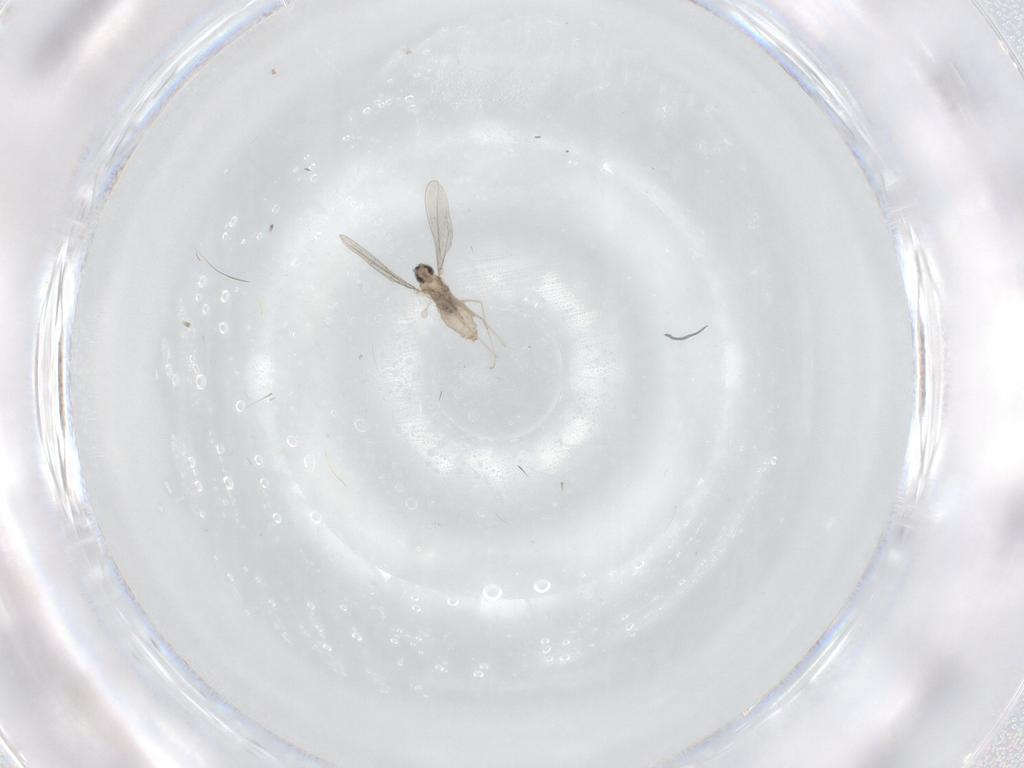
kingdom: Animalia
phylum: Arthropoda
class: Insecta
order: Diptera
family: Cecidomyiidae
